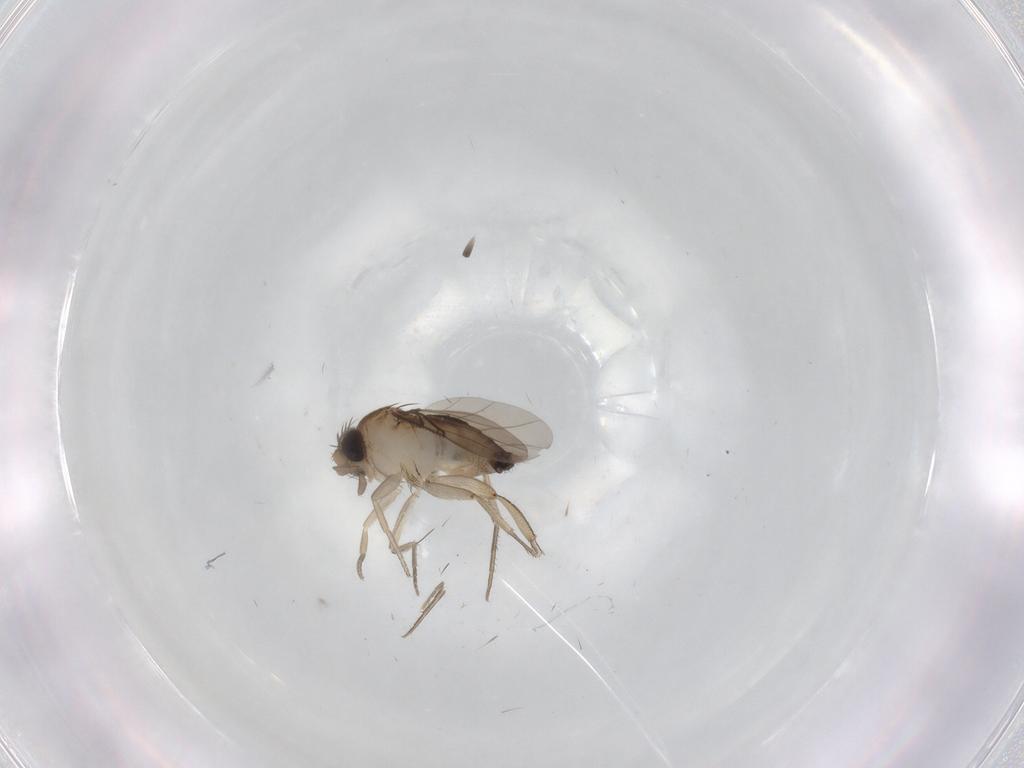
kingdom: Animalia
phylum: Arthropoda
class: Insecta
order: Diptera
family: Phoridae
